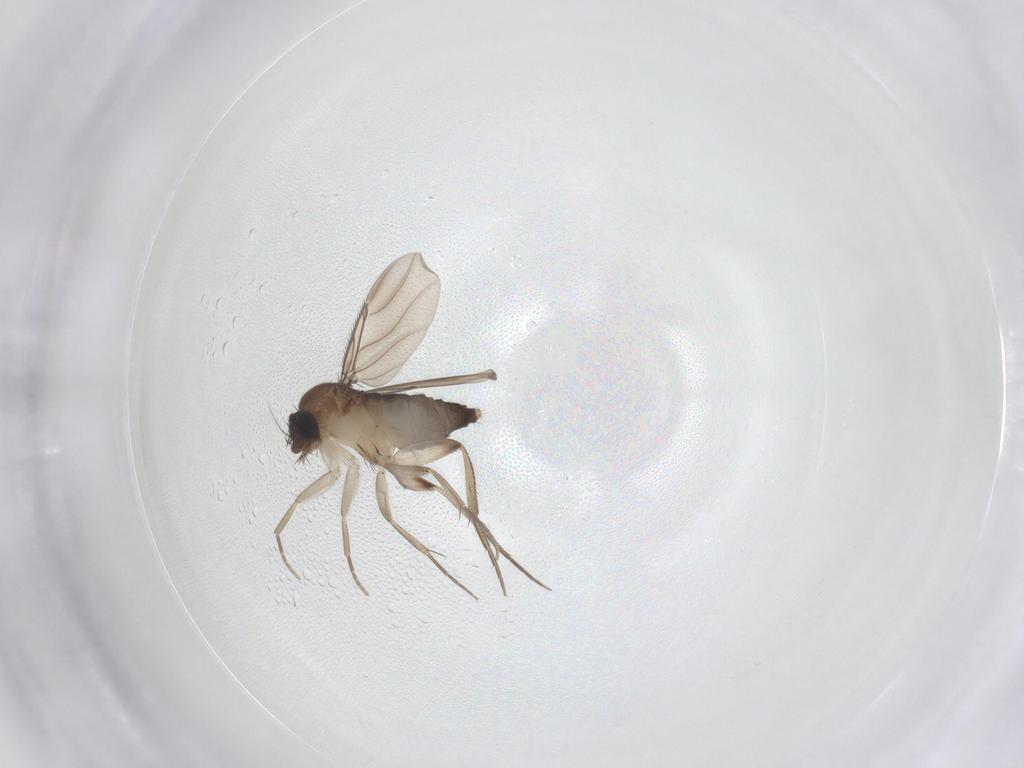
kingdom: Animalia
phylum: Arthropoda
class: Insecta
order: Diptera
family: Phoridae
